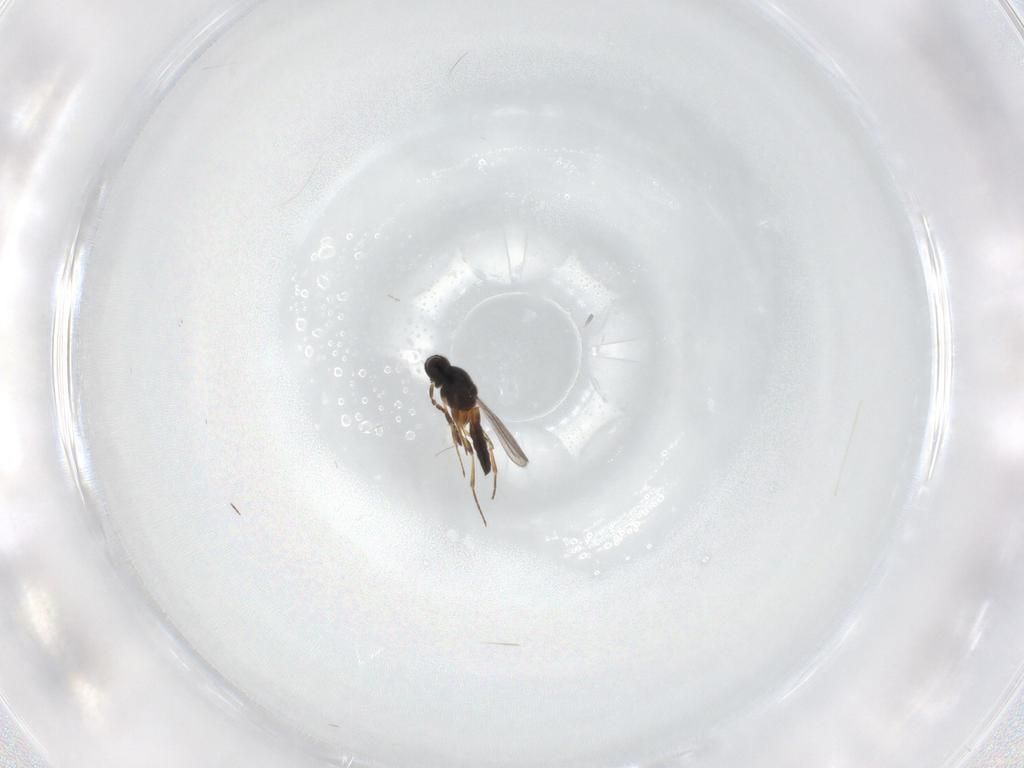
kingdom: Animalia
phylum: Arthropoda
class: Insecta
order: Hymenoptera
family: Scelionidae
